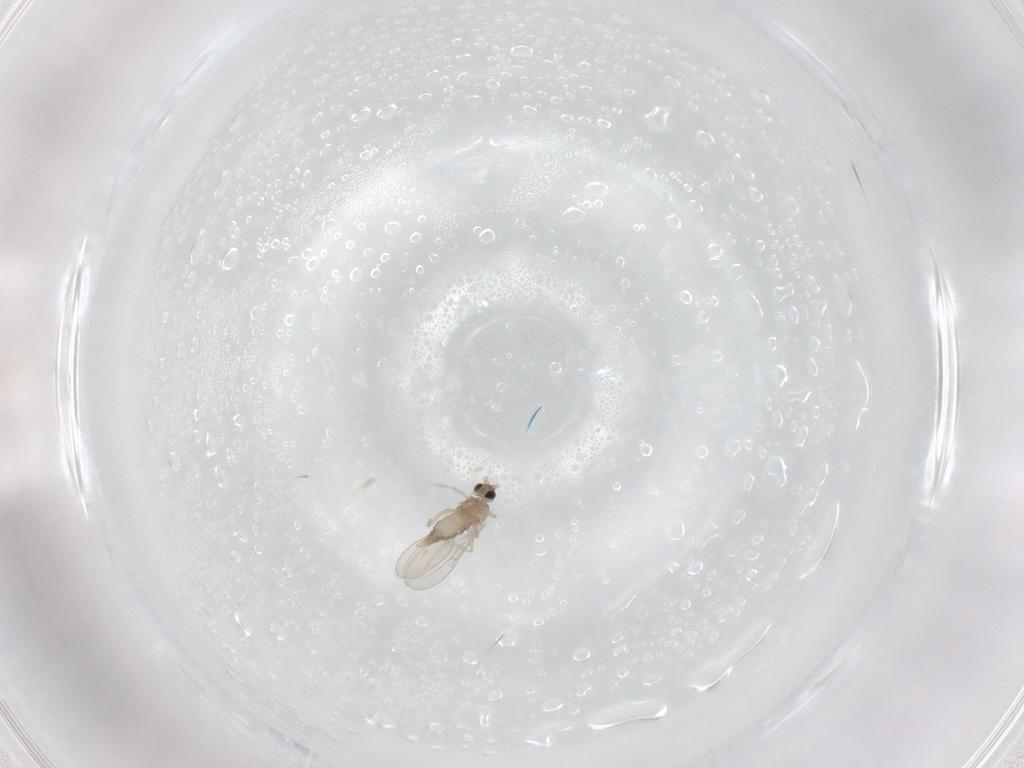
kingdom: Animalia
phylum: Arthropoda
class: Insecta
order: Diptera
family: Cecidomyiidae
